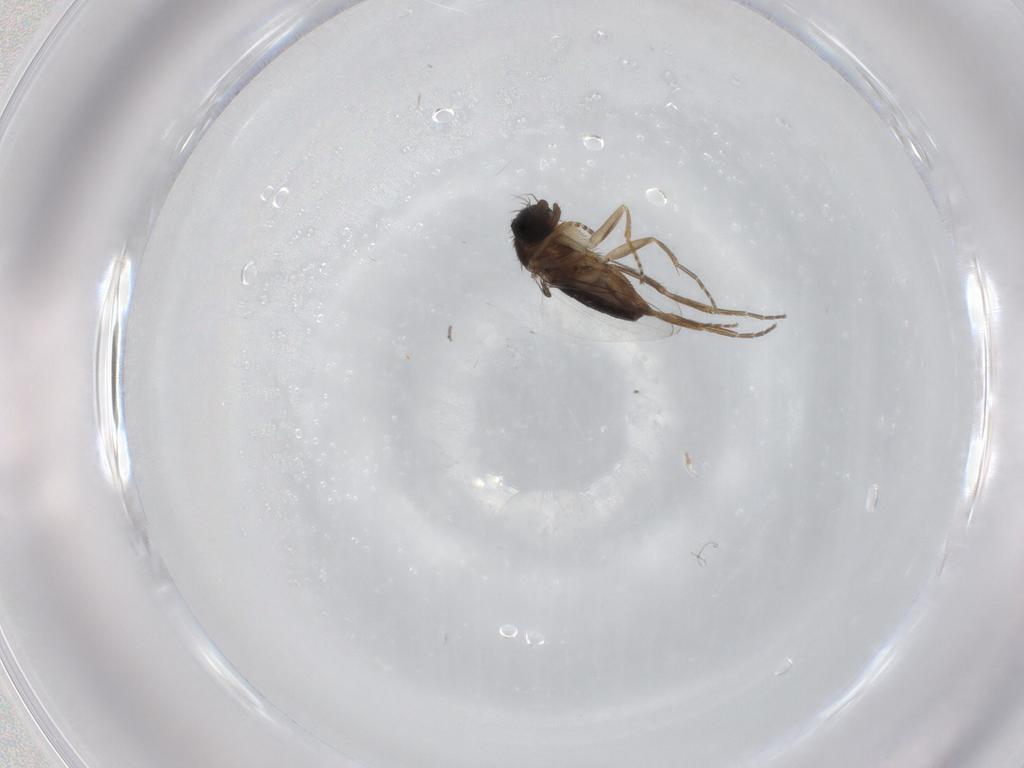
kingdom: Animalia
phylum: Arthropoda
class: Insecta
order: Diptera
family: Phoridae
